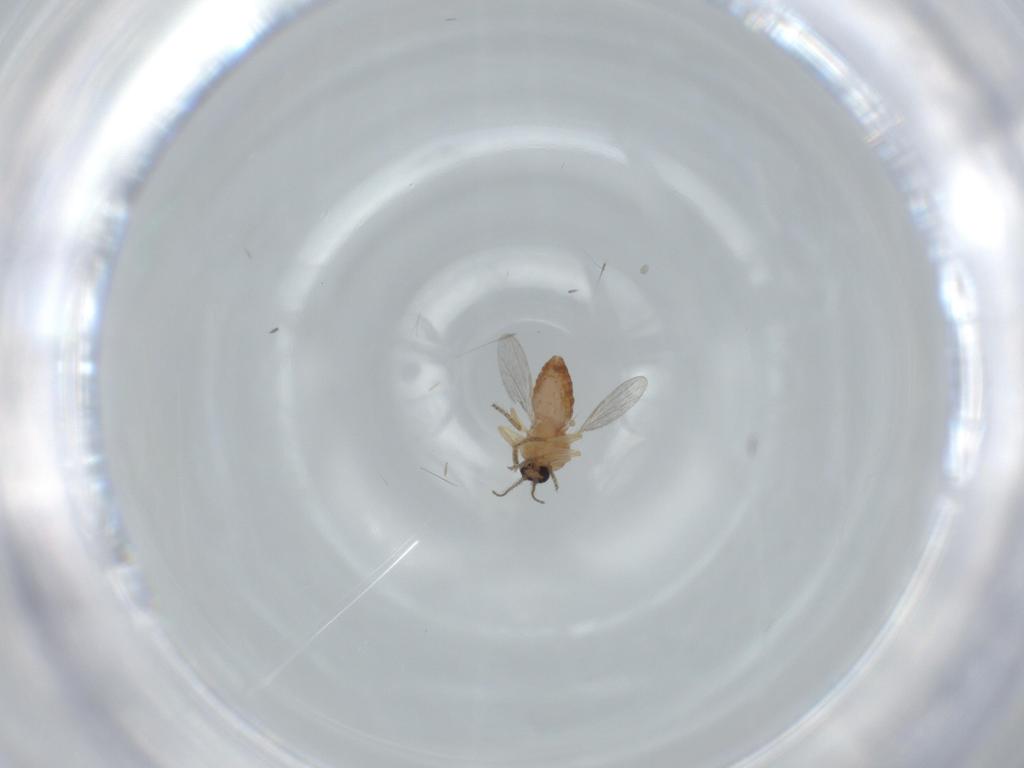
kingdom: Animalia
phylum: Arthropoda
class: Insecta
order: Diptera
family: Ceratopogonidae
